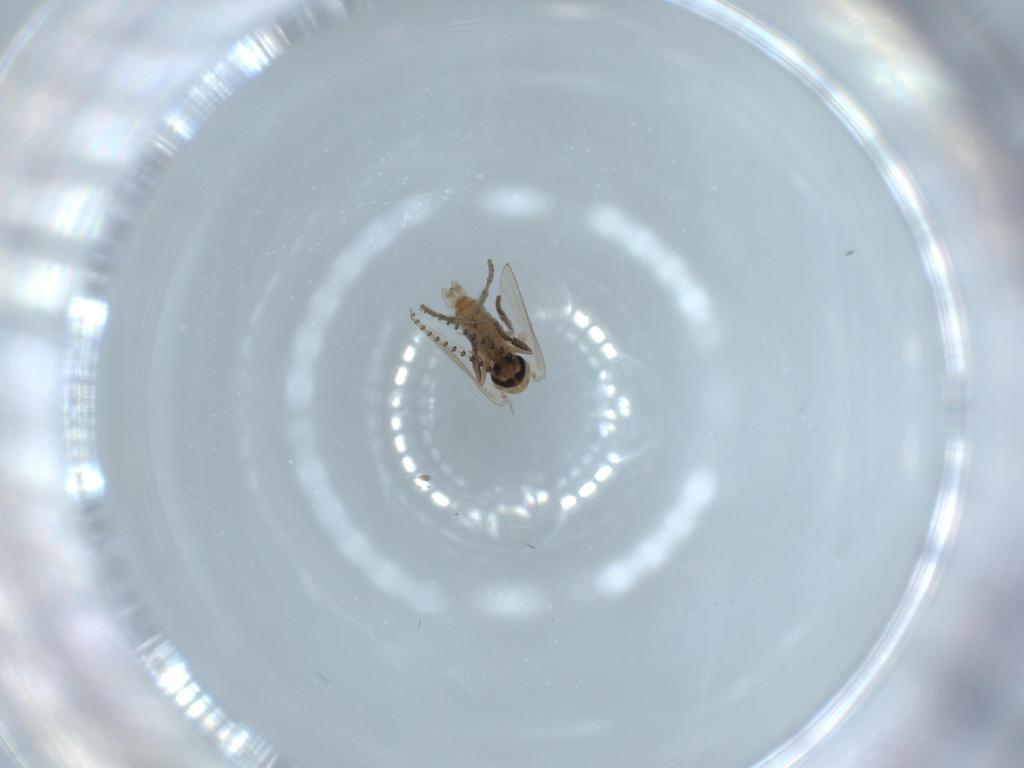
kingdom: Animalia
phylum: Arthropoda
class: Insecta
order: Diptera
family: Psychodidae
